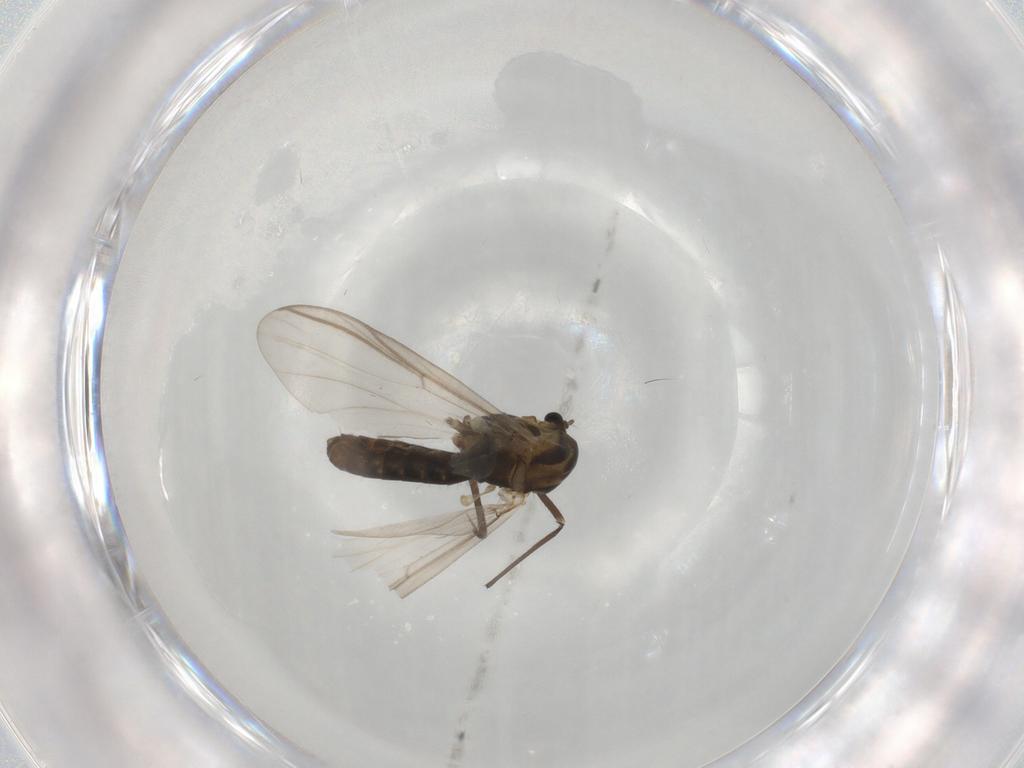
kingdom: Animalia
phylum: Arthropoda
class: Insecta
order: Diptera
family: Chironomidae
